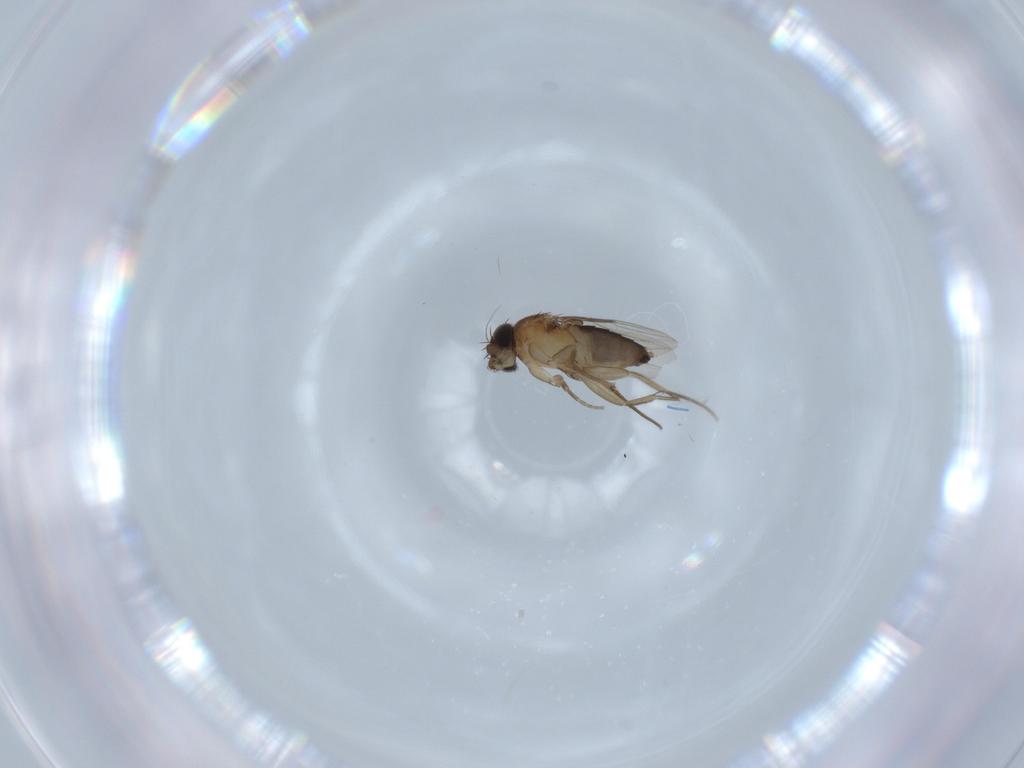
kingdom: Animalia
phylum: Arthropoda
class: Insecta
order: Diptera
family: Phoridae
